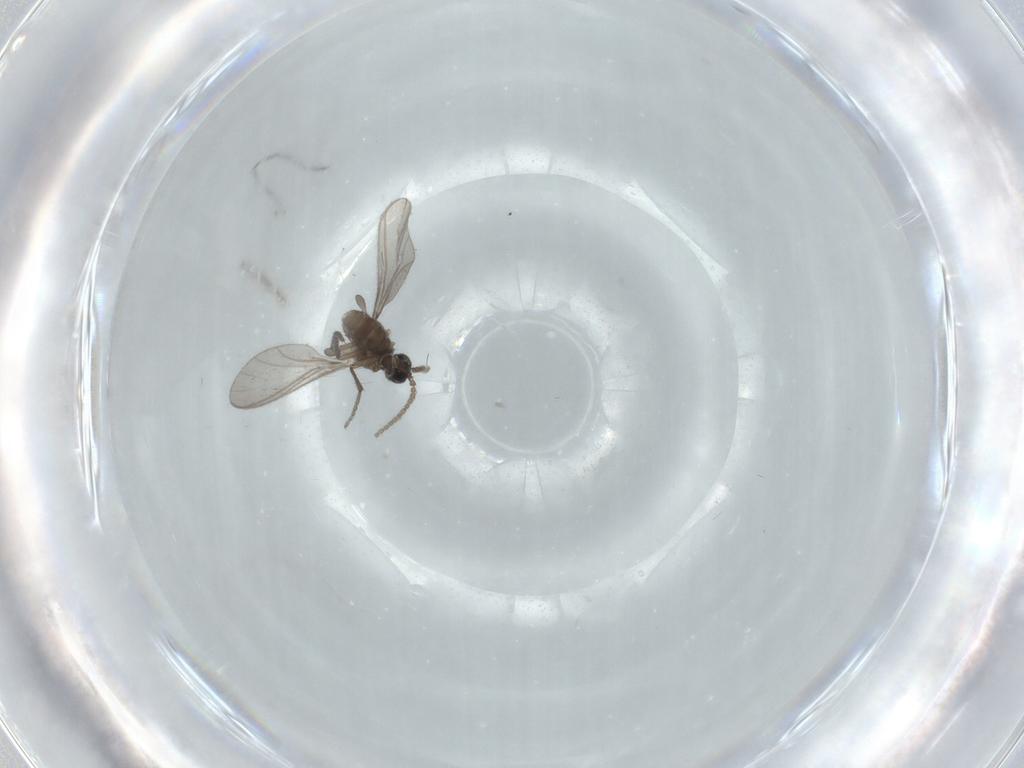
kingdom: Animalia
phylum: Arthropoda
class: Insecta
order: Diptera
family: Sciaridae
